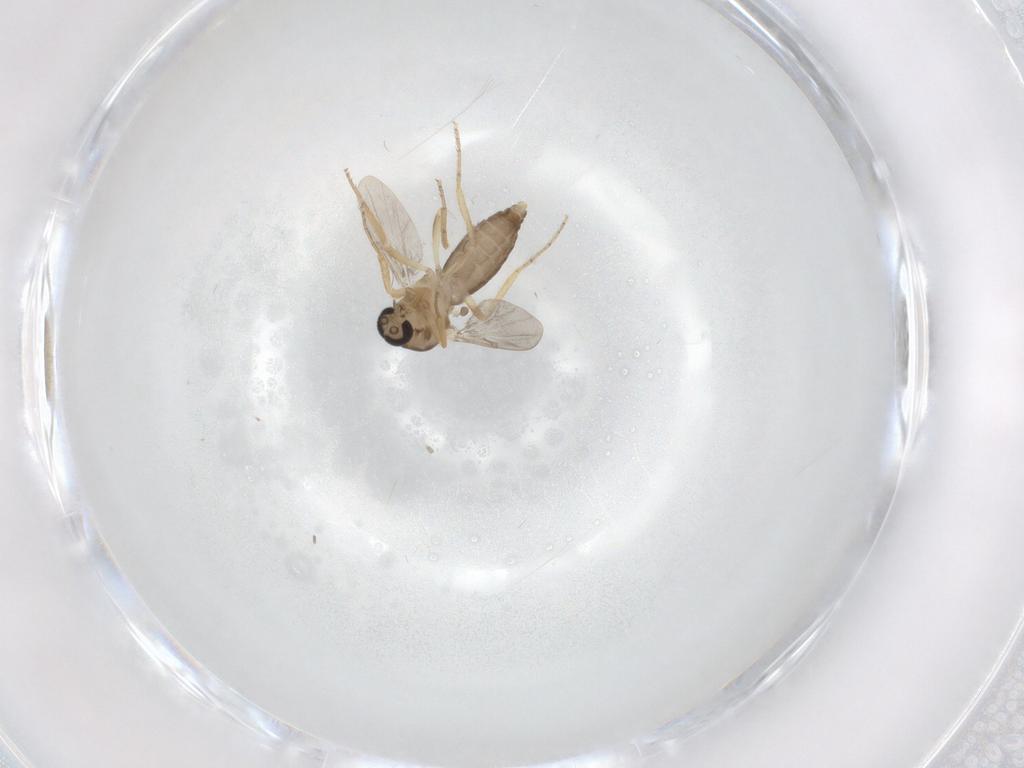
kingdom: Animalia
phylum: Arthropoda
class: Insecta
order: Diptera
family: Ceratopogonidae
